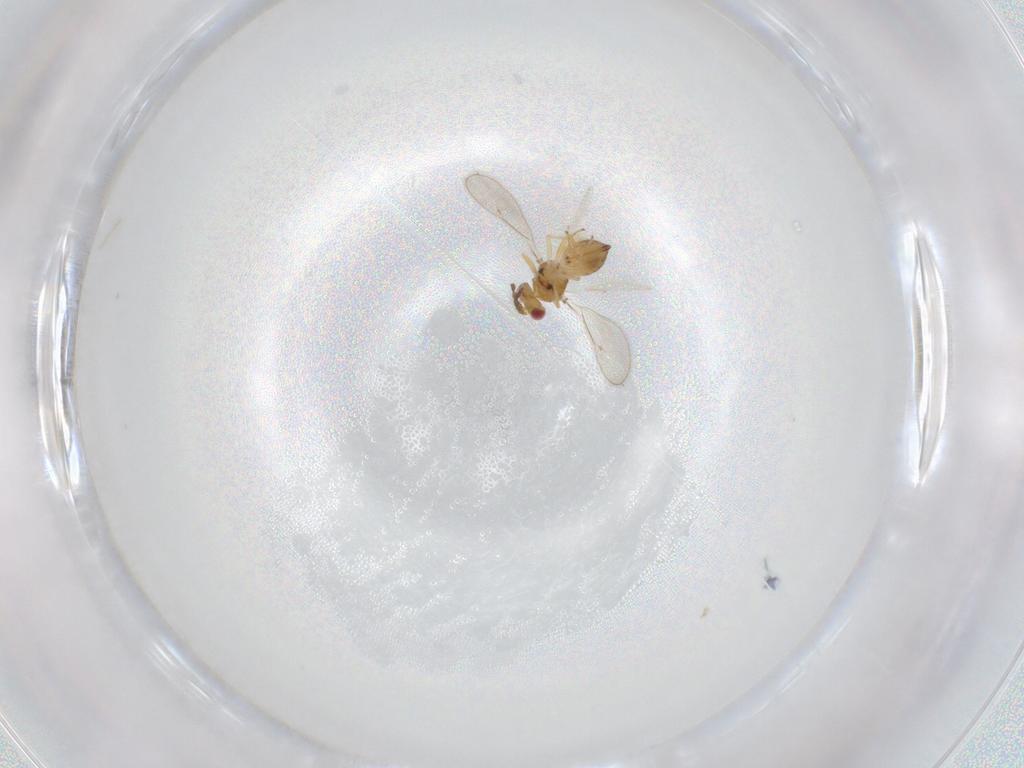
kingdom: Animalia
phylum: Arthropoda
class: Insecta
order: Hymenoptera
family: Eulophidae
